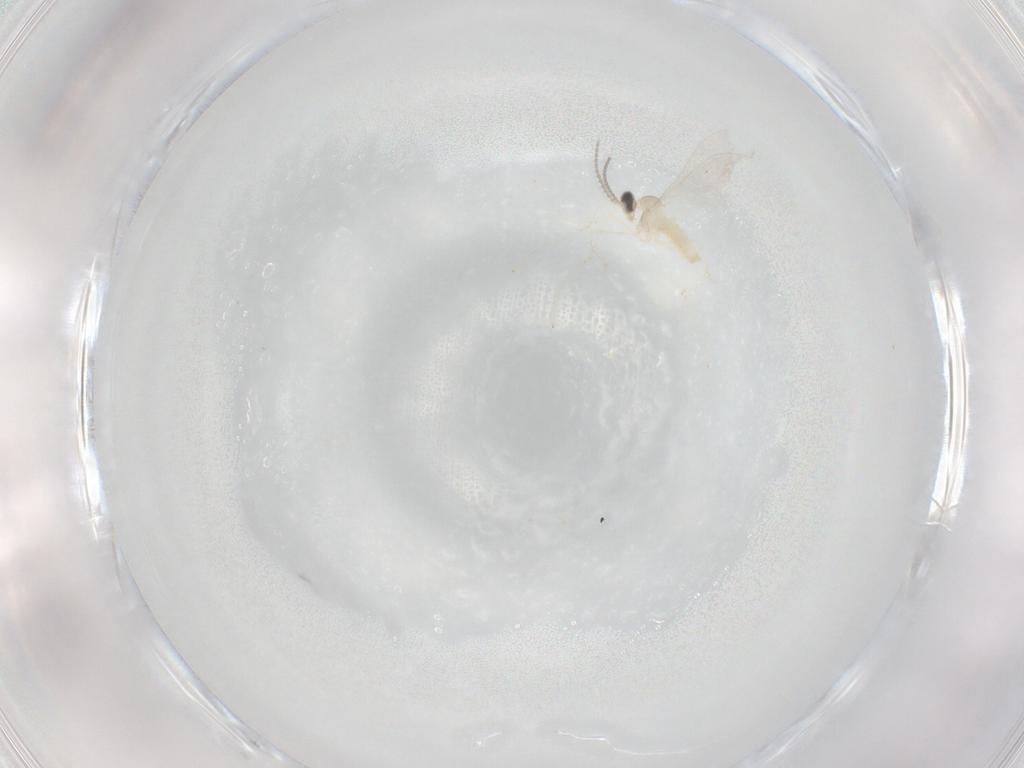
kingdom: Animalia
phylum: Arthropoda
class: Insecta
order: Diptera
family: Cecidomyiidae
